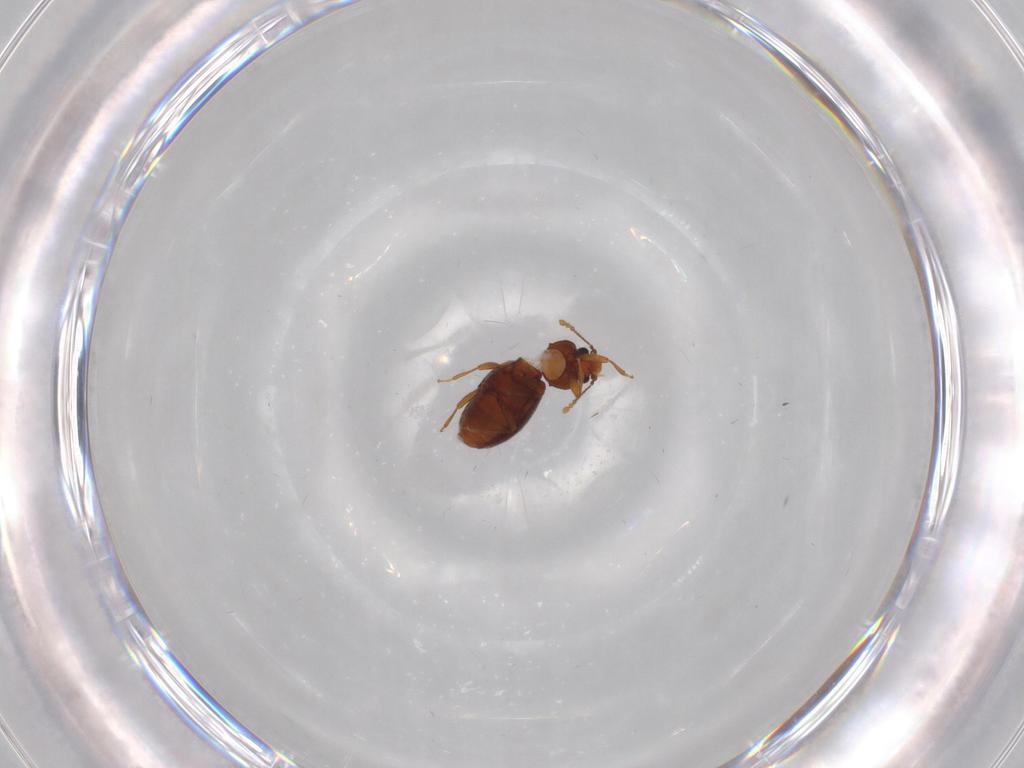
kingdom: Animalia
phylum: Arthropoda
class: Insecta
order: Coleoptera
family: Latridiidae
